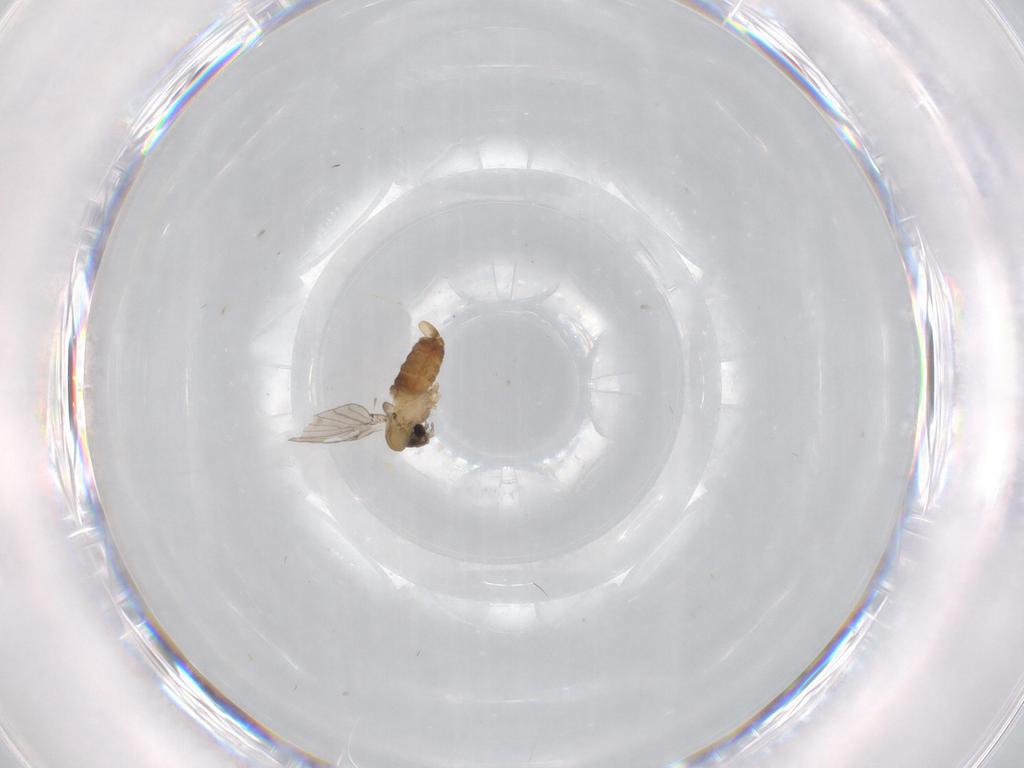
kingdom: Animalia
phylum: Arthropoda
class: Insecta
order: Diptera
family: Psychodidae
